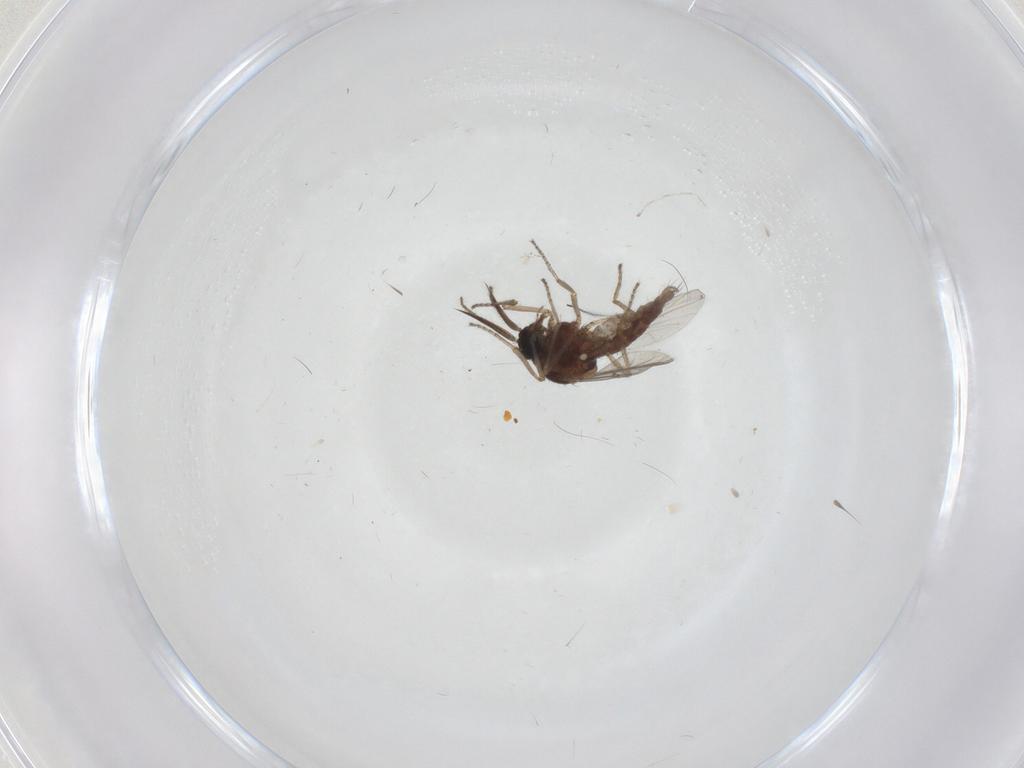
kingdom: Animalia
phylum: Arthropoda
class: Insecta
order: Diptera
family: Ceratopogonidae
